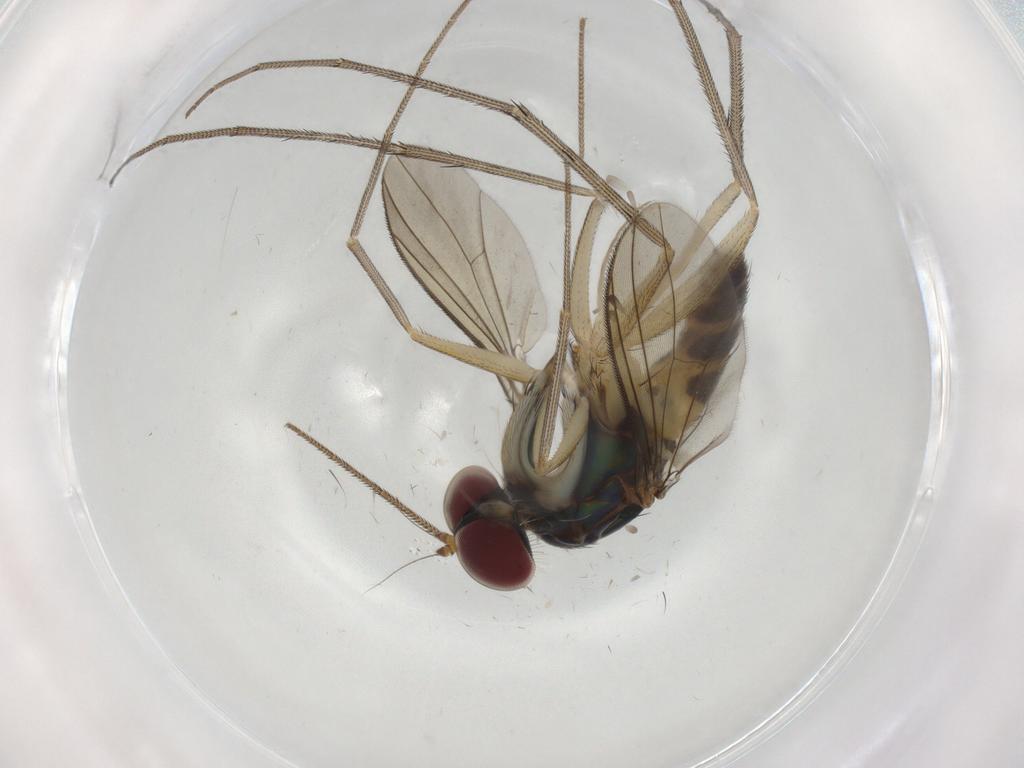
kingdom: Animalia
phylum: Arthropoda
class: Insecta
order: Diptera
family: Dolichopodidae
